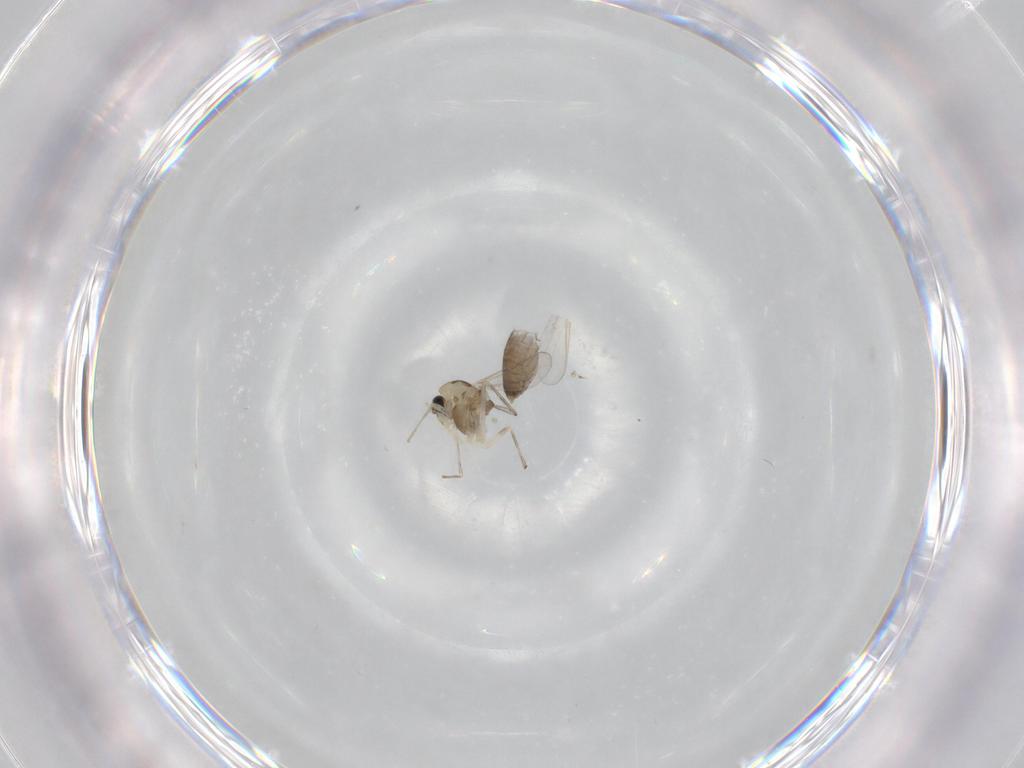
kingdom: Animalia
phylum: Arthropoda
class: Insecta
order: Diptera
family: Chironomidae
